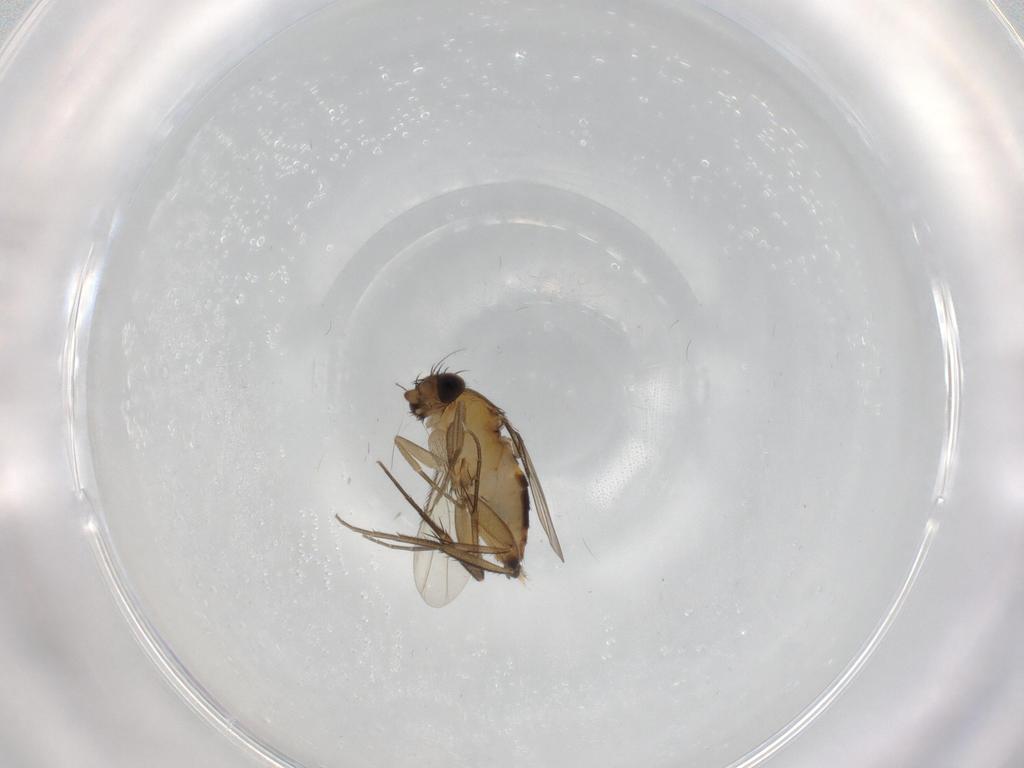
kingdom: Animalia
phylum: Arthropoda
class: Insecta
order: Diptera
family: Phoridae
